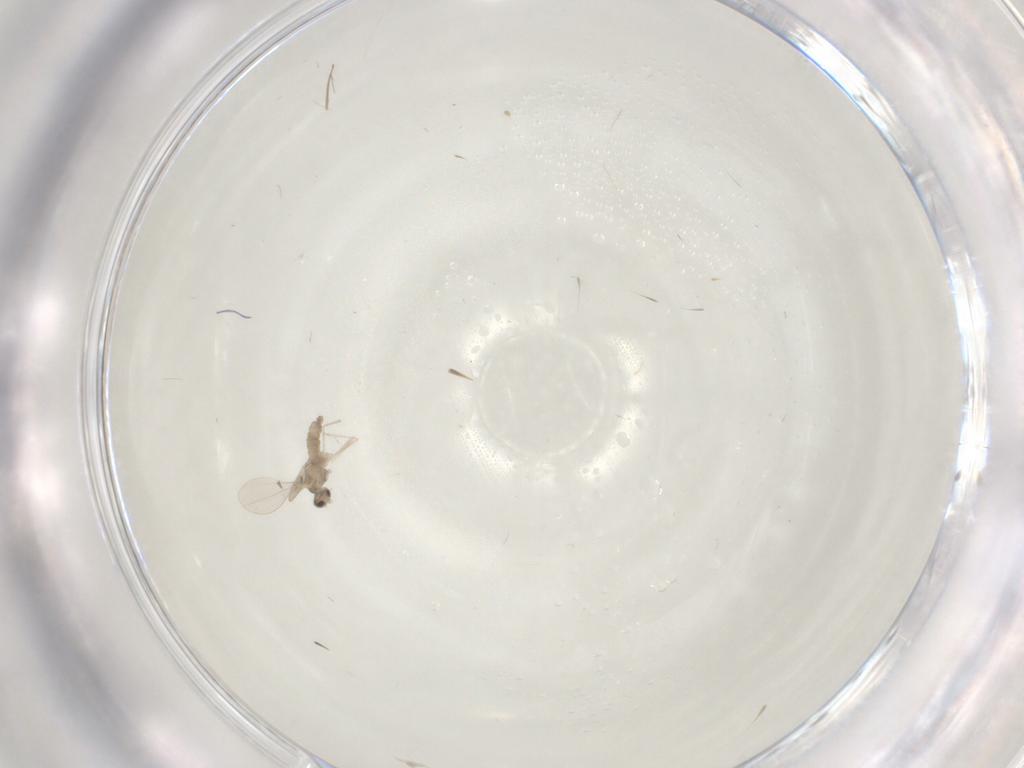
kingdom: Animalia
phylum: Arthropoda
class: Insecta
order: Diptera
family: Chironomidae
